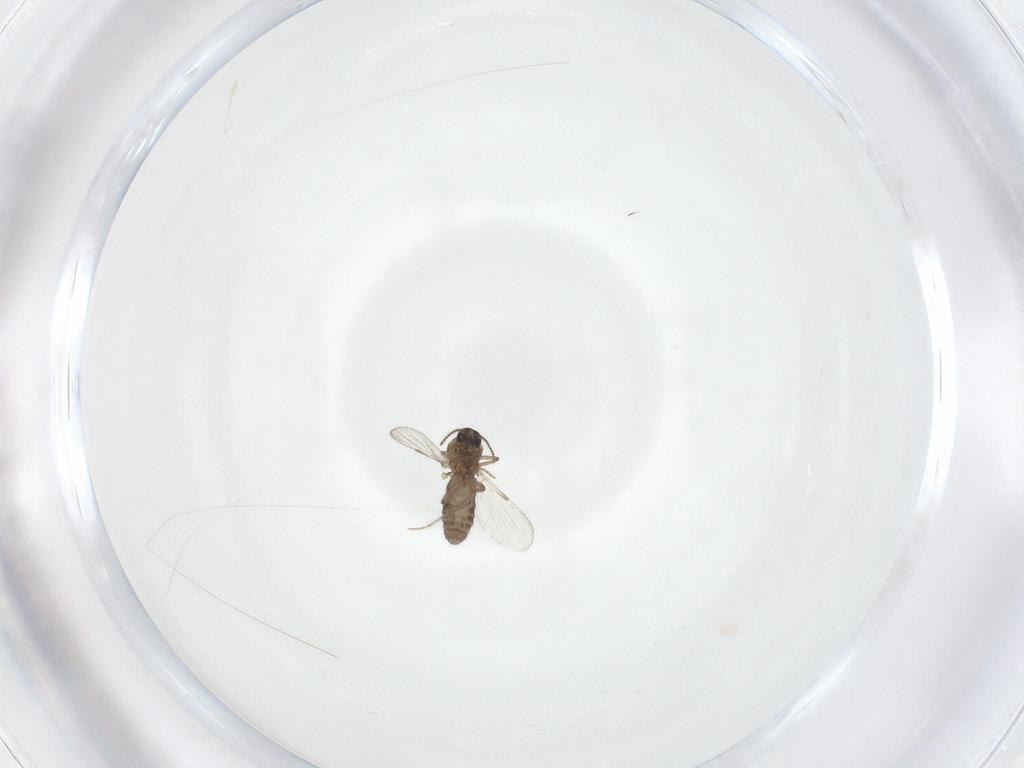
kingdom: Animalia
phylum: Arthropoda
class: Insecta
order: Diptera
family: Ceratopogonidae
